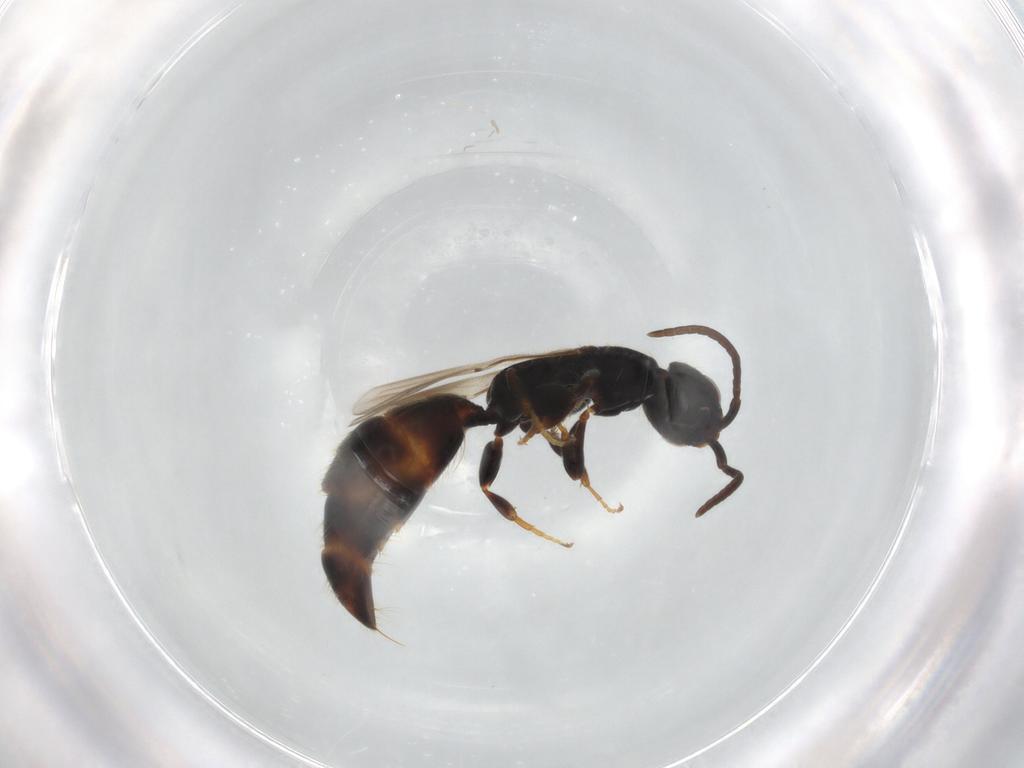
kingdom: Animalia
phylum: Arthropoda
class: Insecta
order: Hymenoptera
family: Bethylidae
